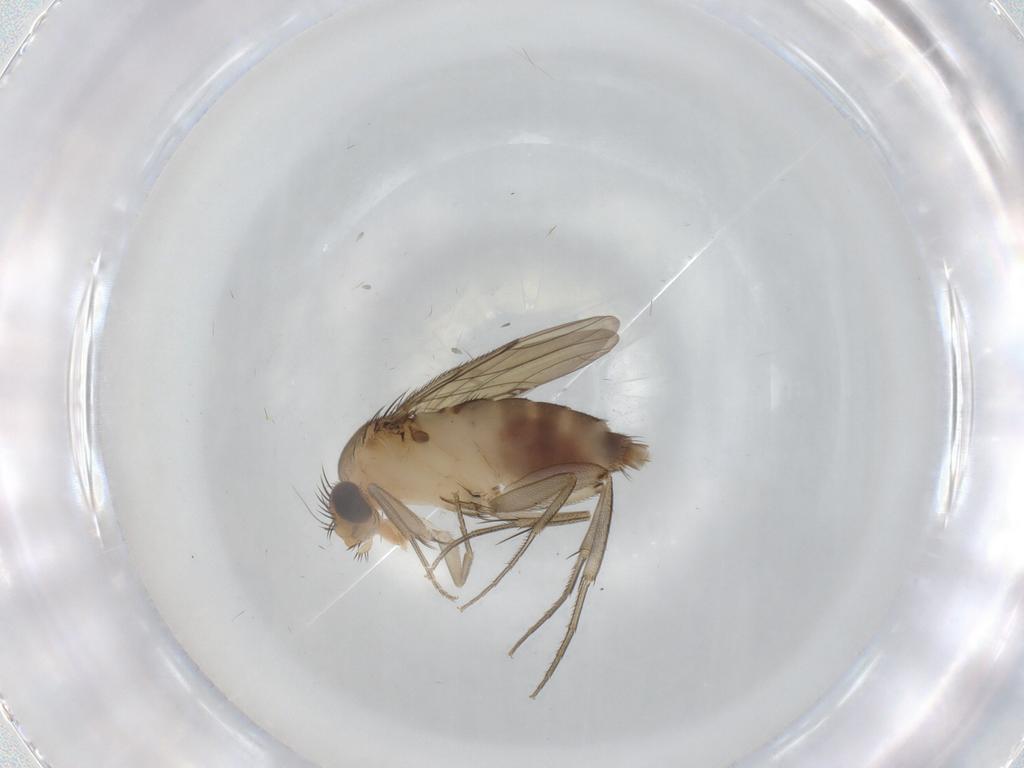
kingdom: Animalia
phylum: Arthropoda
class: Insecta
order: Diptera
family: Phoridae
